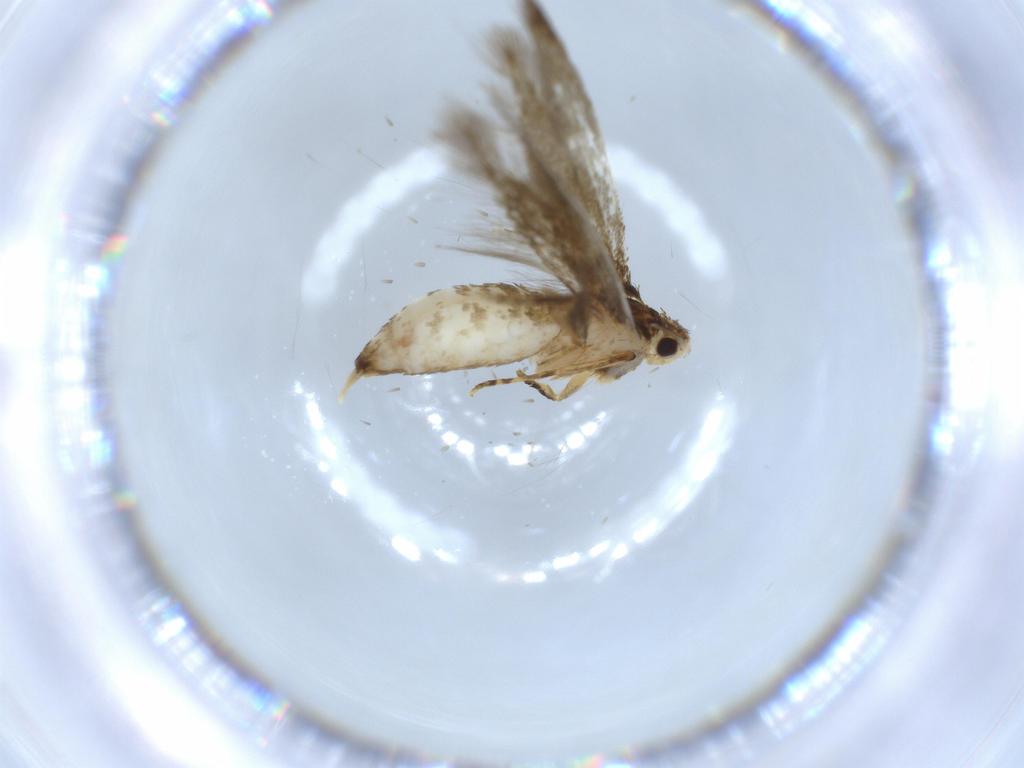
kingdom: Animalia
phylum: Arthropoda
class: Insecta
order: Lepidoptera
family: Tineidae
